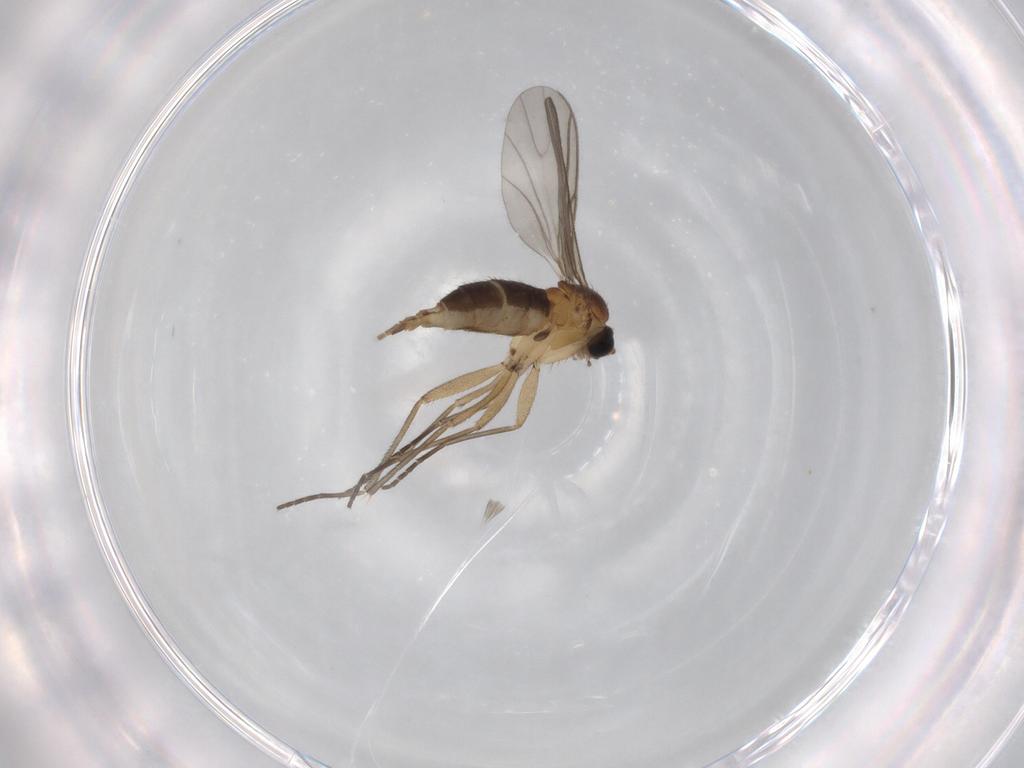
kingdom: Animalia
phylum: Arthropoda
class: Insecta
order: Diptera
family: Sciaridae
